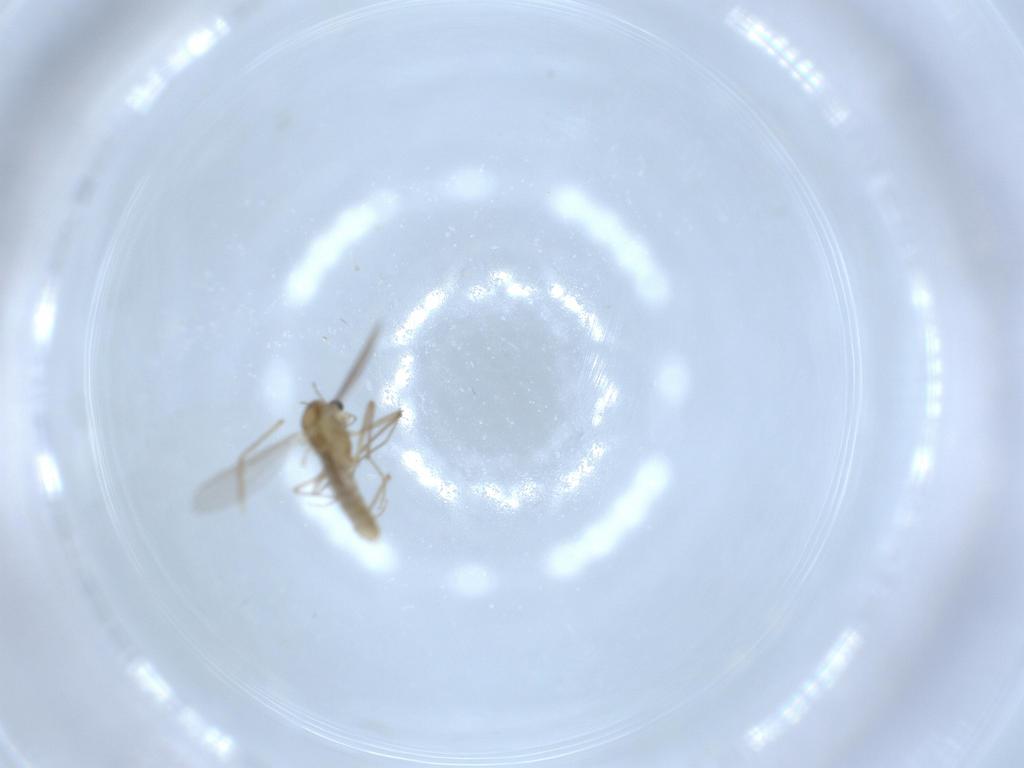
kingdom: Animalia
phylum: Arthropoda
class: Insecta
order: Diptera
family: Chironomidae
